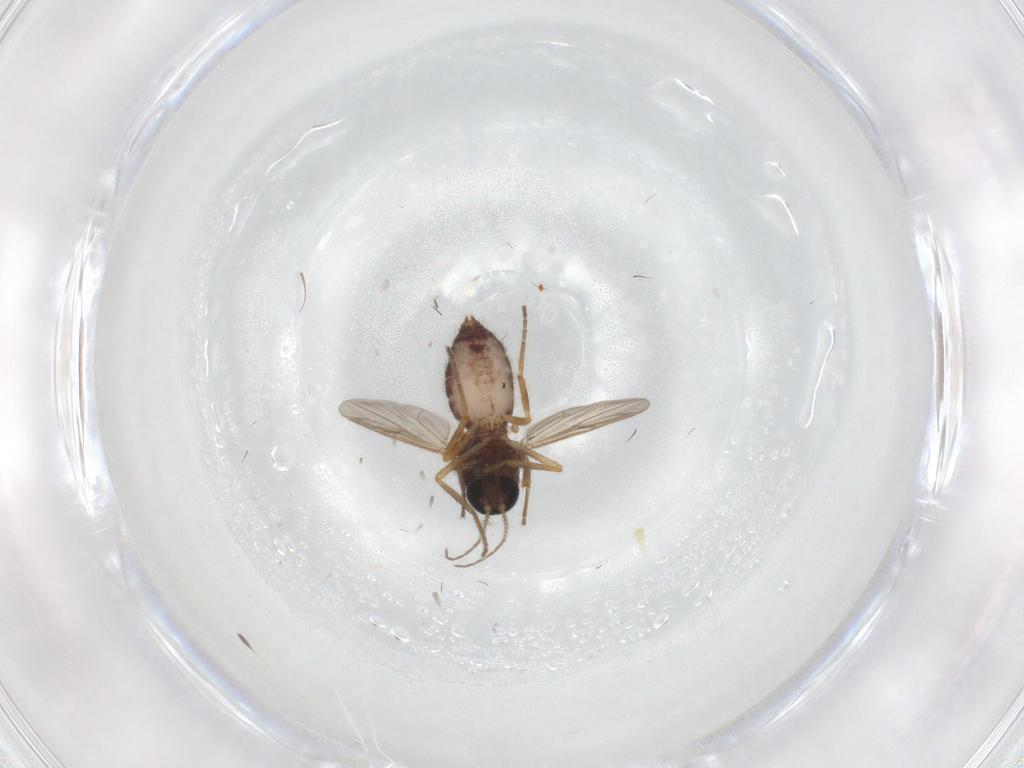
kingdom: Animalia
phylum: Arthropoda
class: Insecta
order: Diptera
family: Ceratopogonidae
